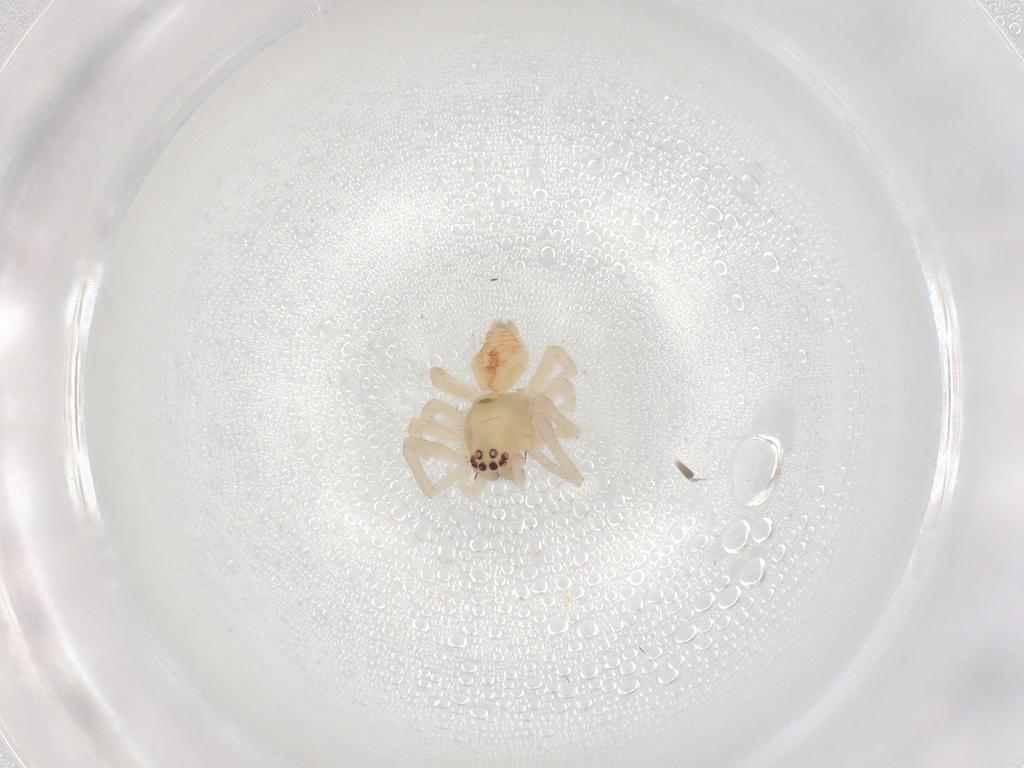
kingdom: Animalia
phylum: Arthropoda
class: Arachnida
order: Araneae
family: Cheiracanthiidae
